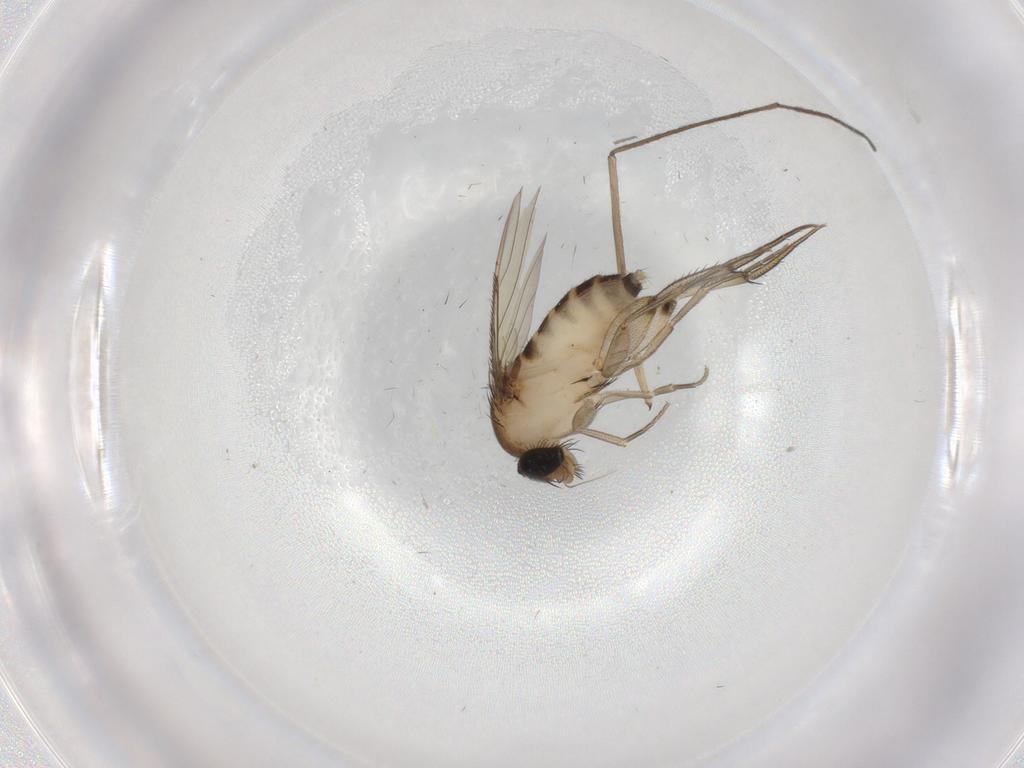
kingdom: Animalia
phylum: Arthropoda
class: Insecta
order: Diptera
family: Phoridae
